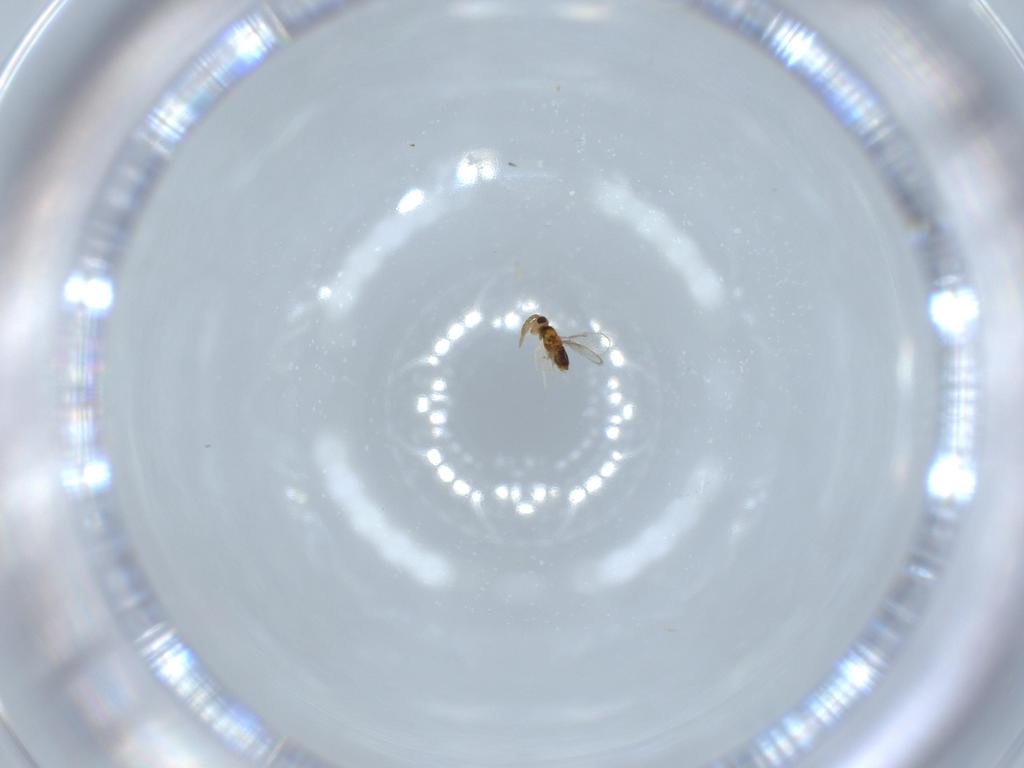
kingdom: Animalia
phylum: Arthropoda
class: Insecta
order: Hymenoptera
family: Aphelinidae
